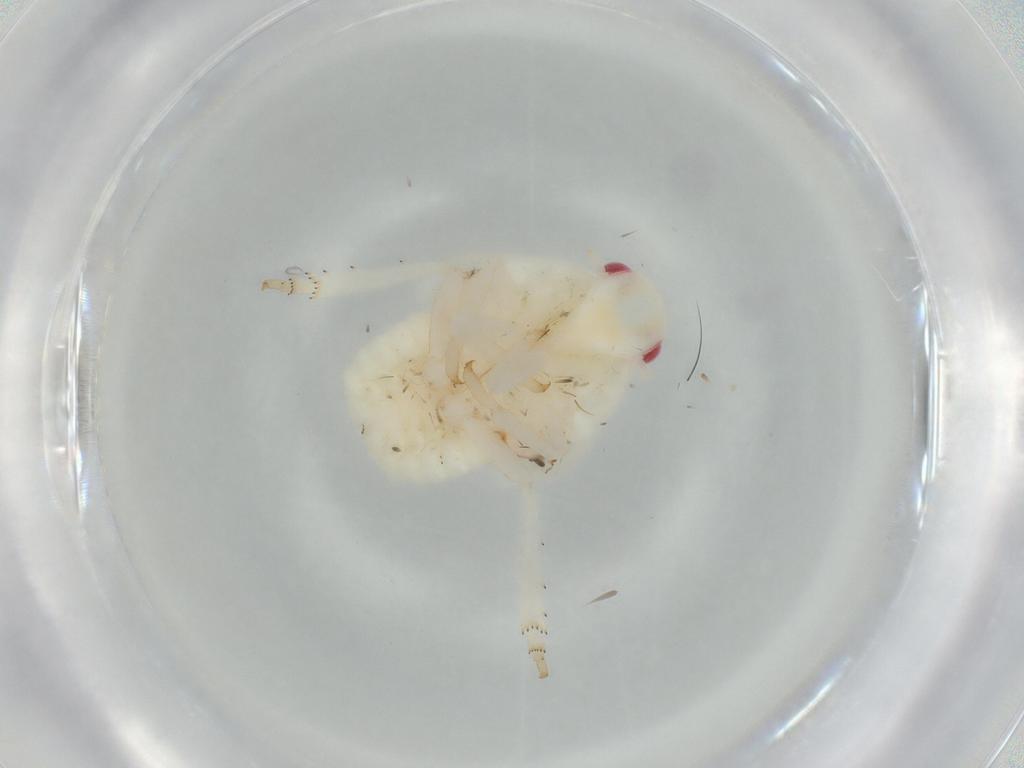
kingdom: Animalia
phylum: Arthropoda
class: Insecta
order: Hemiptera
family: Flatidae
